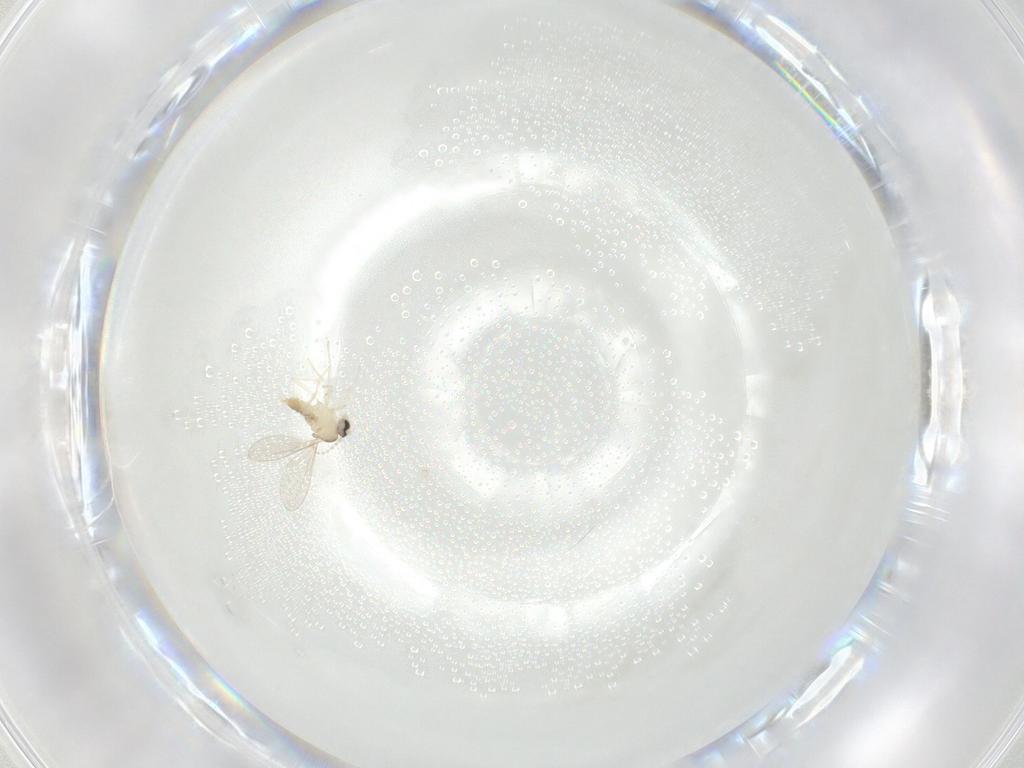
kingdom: Animalia
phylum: Arthropoda
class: Insecta
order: Diptera
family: Cecidomyiidae
